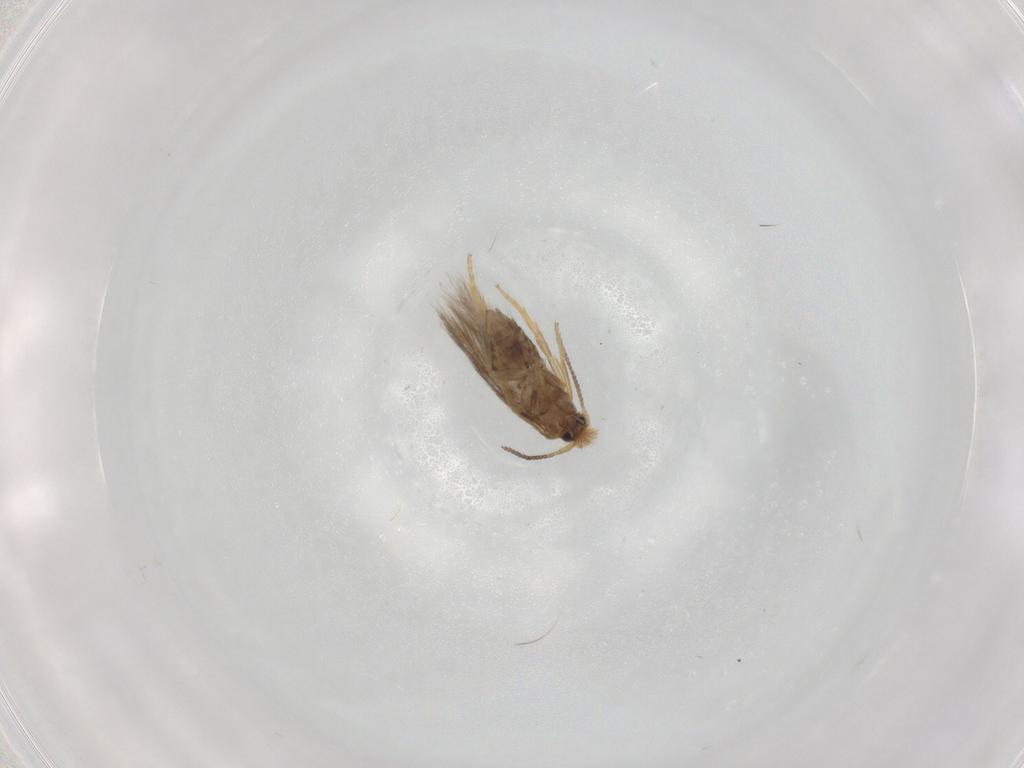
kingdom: Animalia
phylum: Arthropoda
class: Insecta
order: Lepidoptera
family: Nepticulidae
